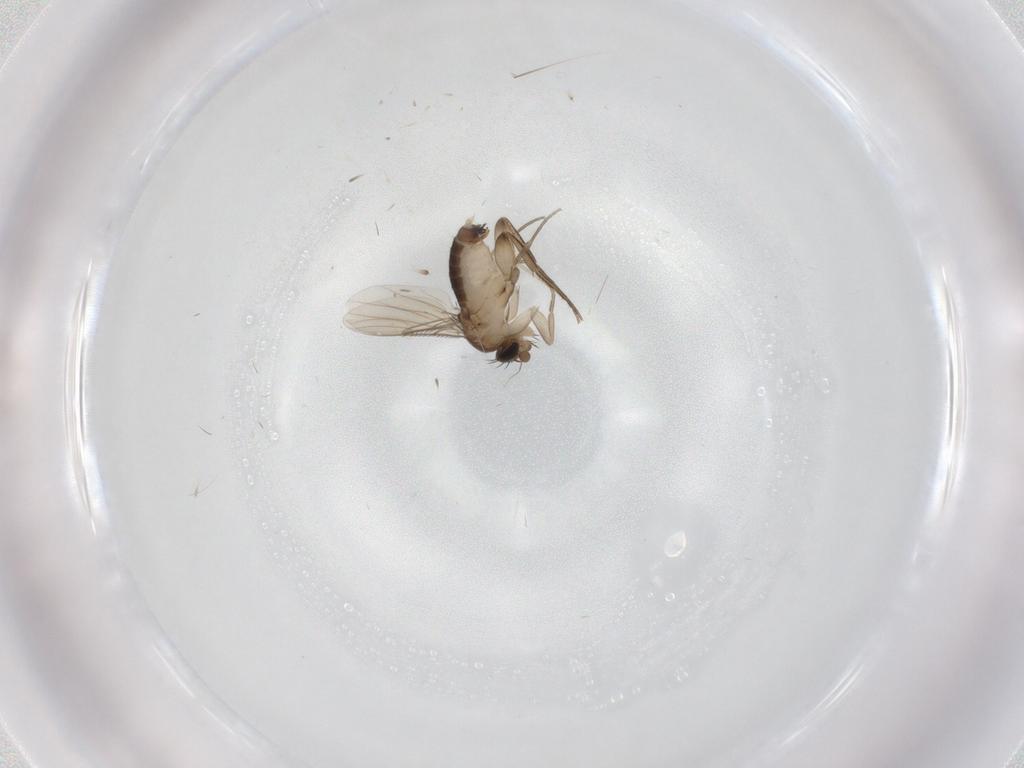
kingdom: Animalia
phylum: Arthropoda
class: Insecta
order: Diptera
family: Phoridae
